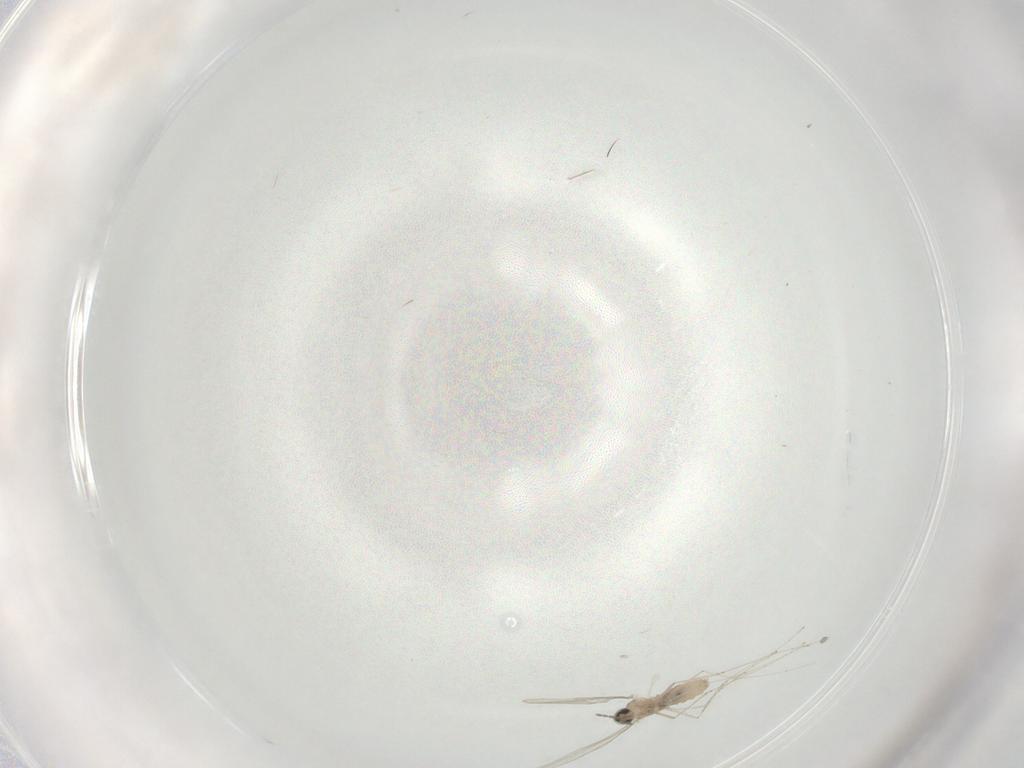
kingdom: Animalia
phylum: Arthropoda
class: Insecta
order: Diptera
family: Cecidomyiidae
